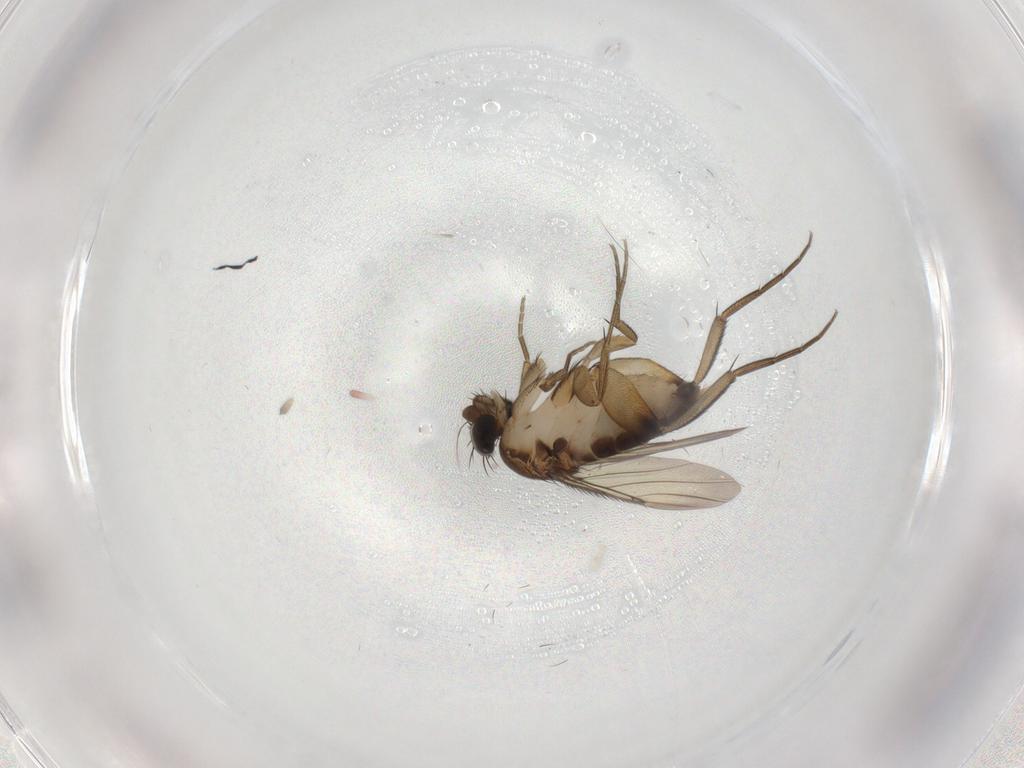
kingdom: Animalia
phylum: Arthropoda
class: Insecta
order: Diptera
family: Phoridae
